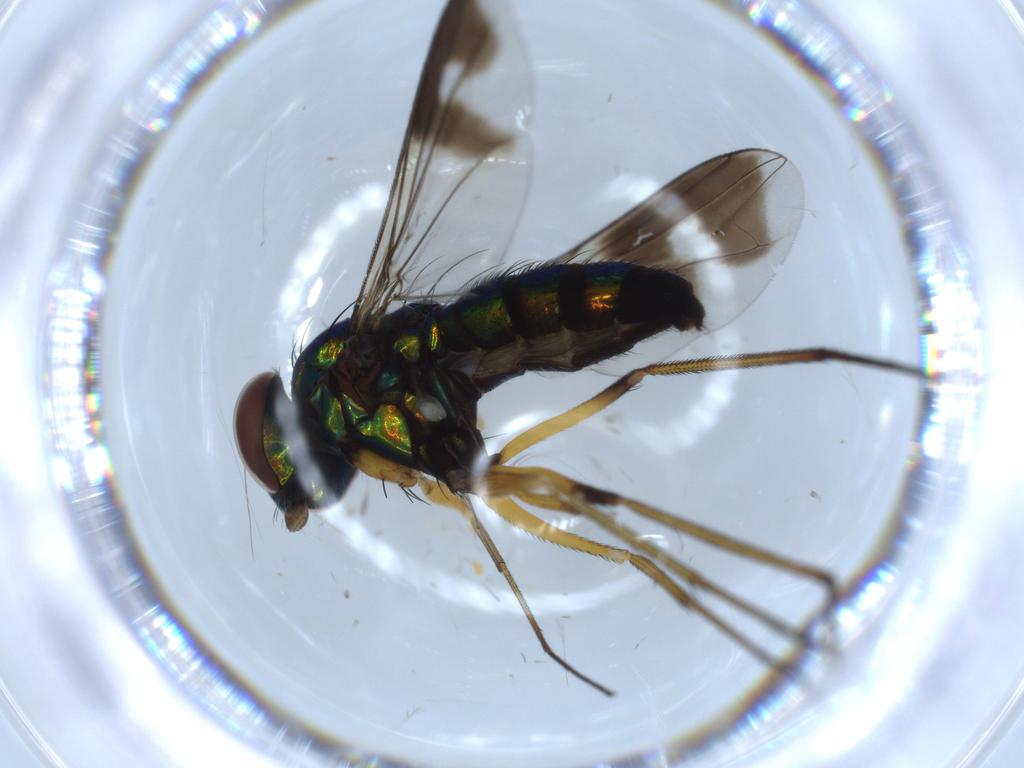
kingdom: Animalia
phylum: Arthropoda
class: Insecta
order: Diptera
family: Sciaridae
